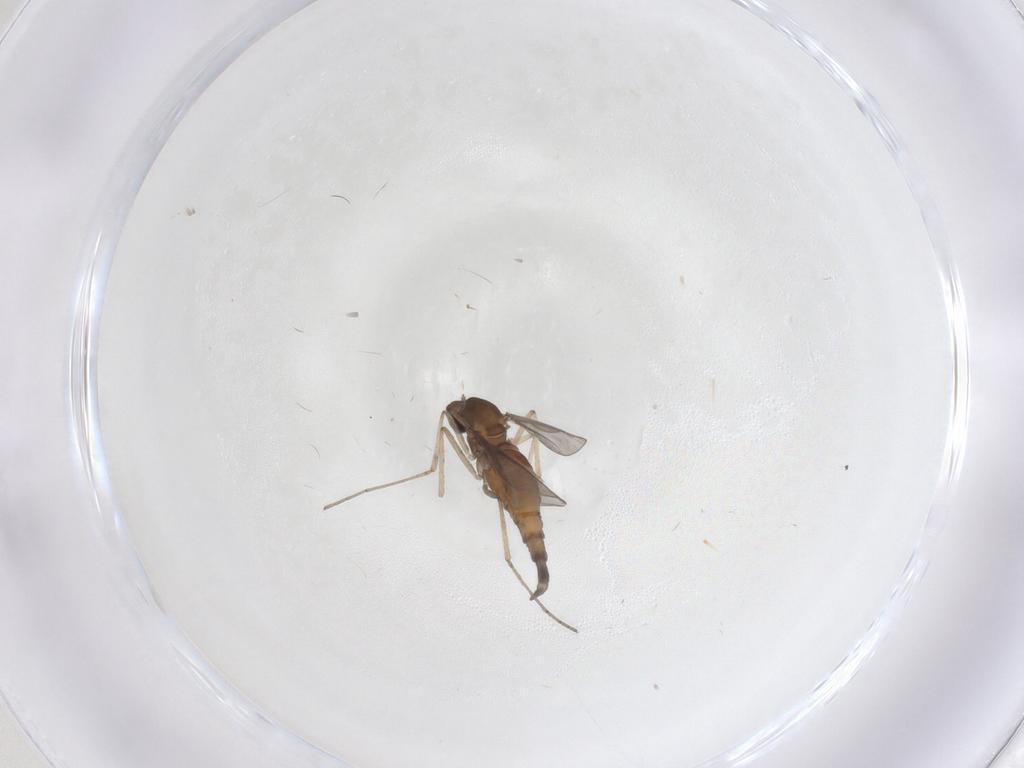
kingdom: Animalia
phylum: Arthropoda
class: Insecta
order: Diptera
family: Cecidomyiidae
